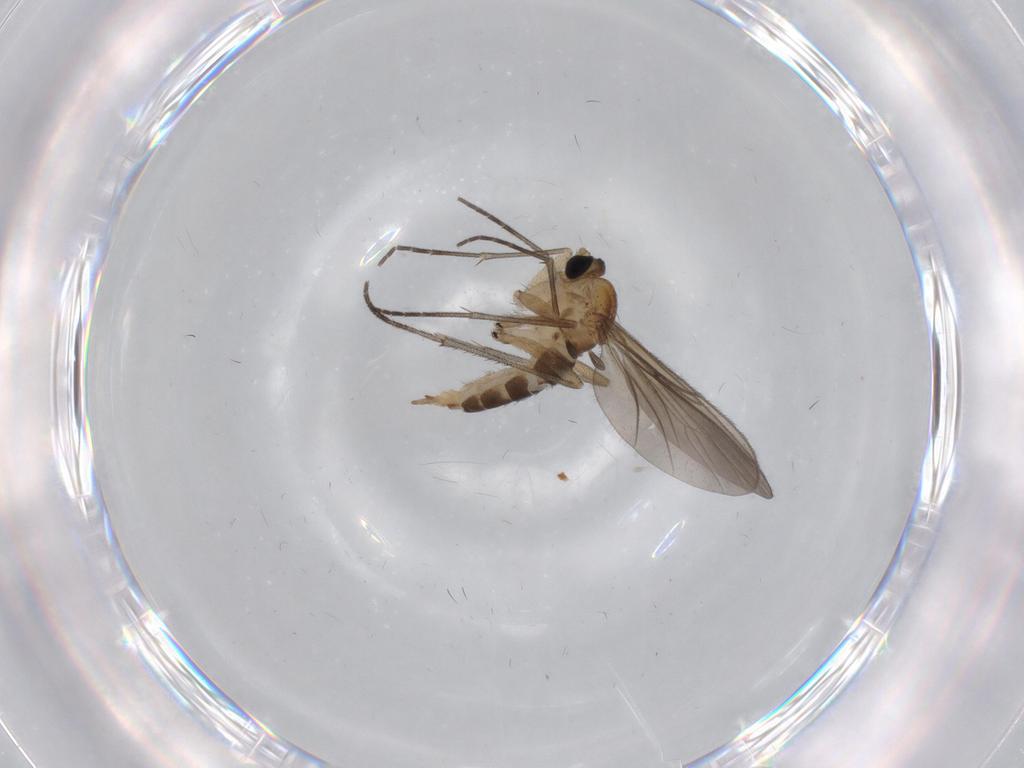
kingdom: Animalia
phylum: Arthropoda
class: Insecta
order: Diptera
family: Sciaridae
